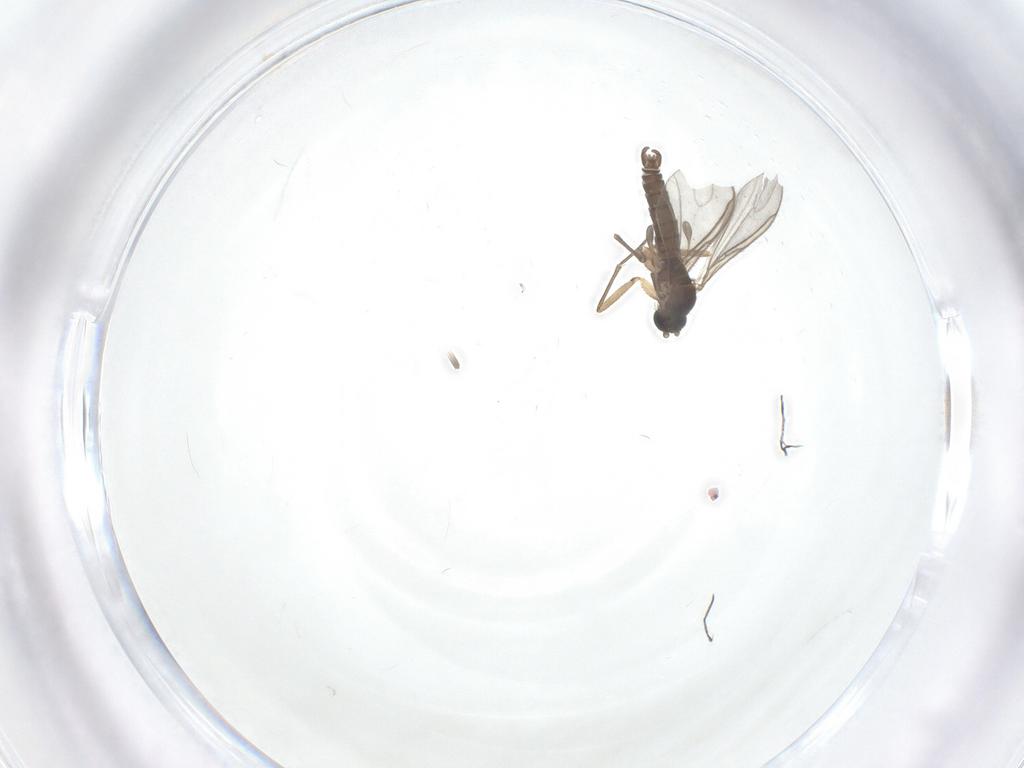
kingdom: Animalia
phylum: Arthropoda
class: Insecta
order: Diptera
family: Sciaridae
